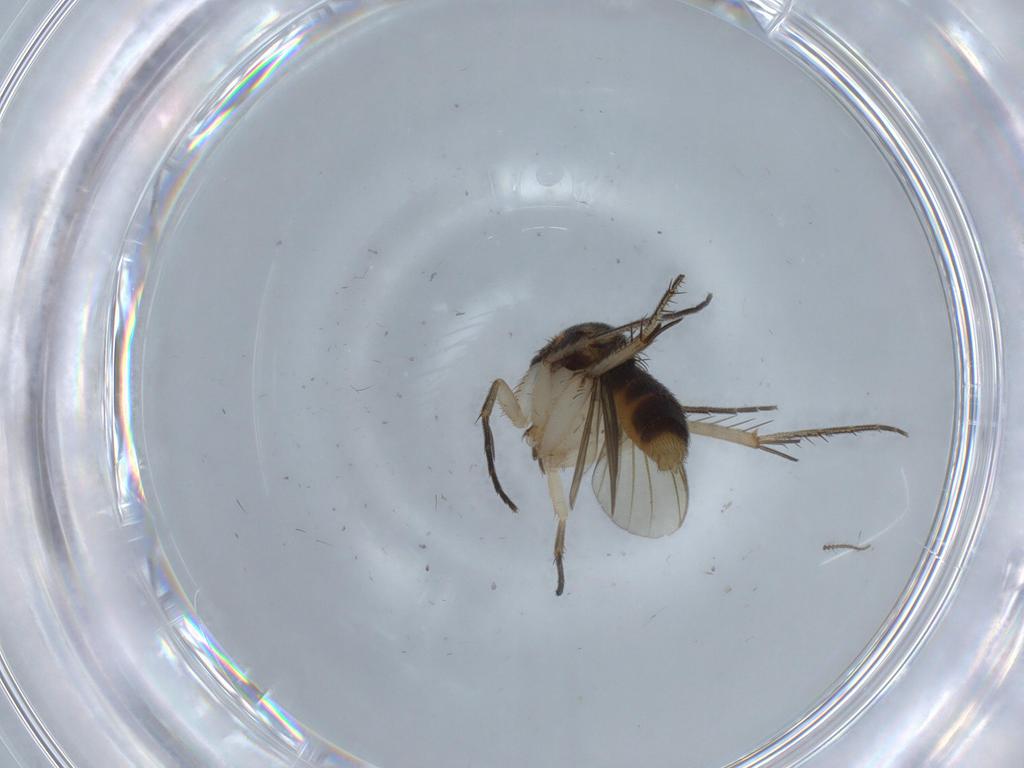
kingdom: Animalia
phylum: Arthropoda
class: Insecta
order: Diptera
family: Mycetophilidae
